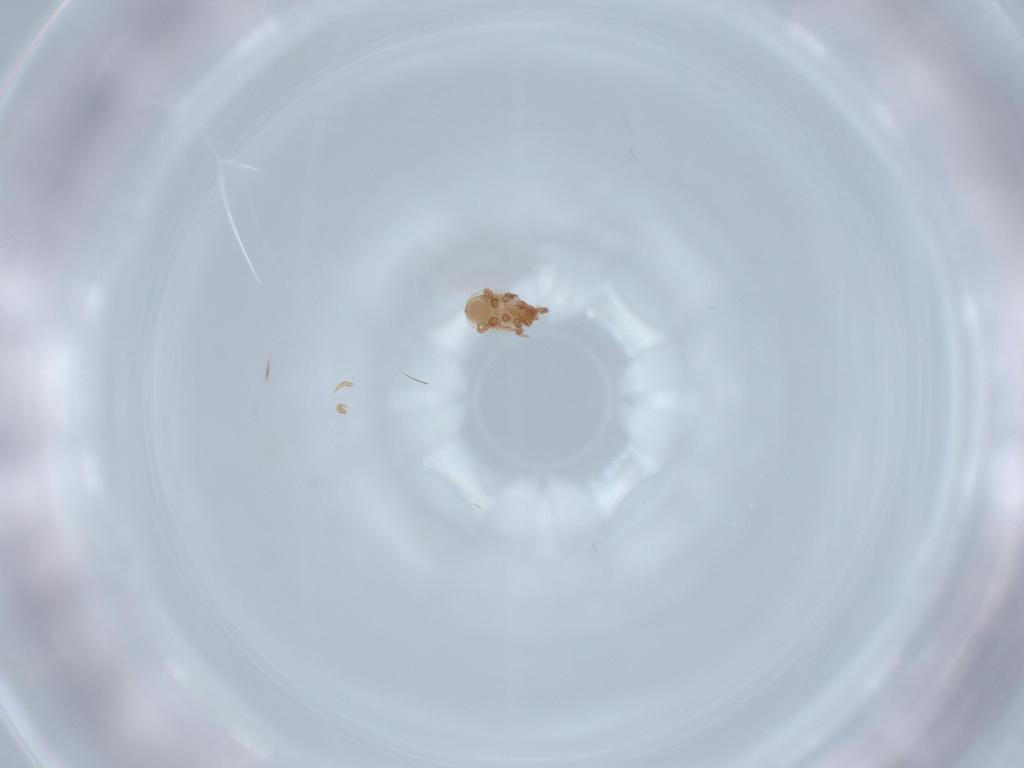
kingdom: Animalia
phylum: Arthropoda
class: Arachnida
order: Mesostigmata
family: Dinychidae
